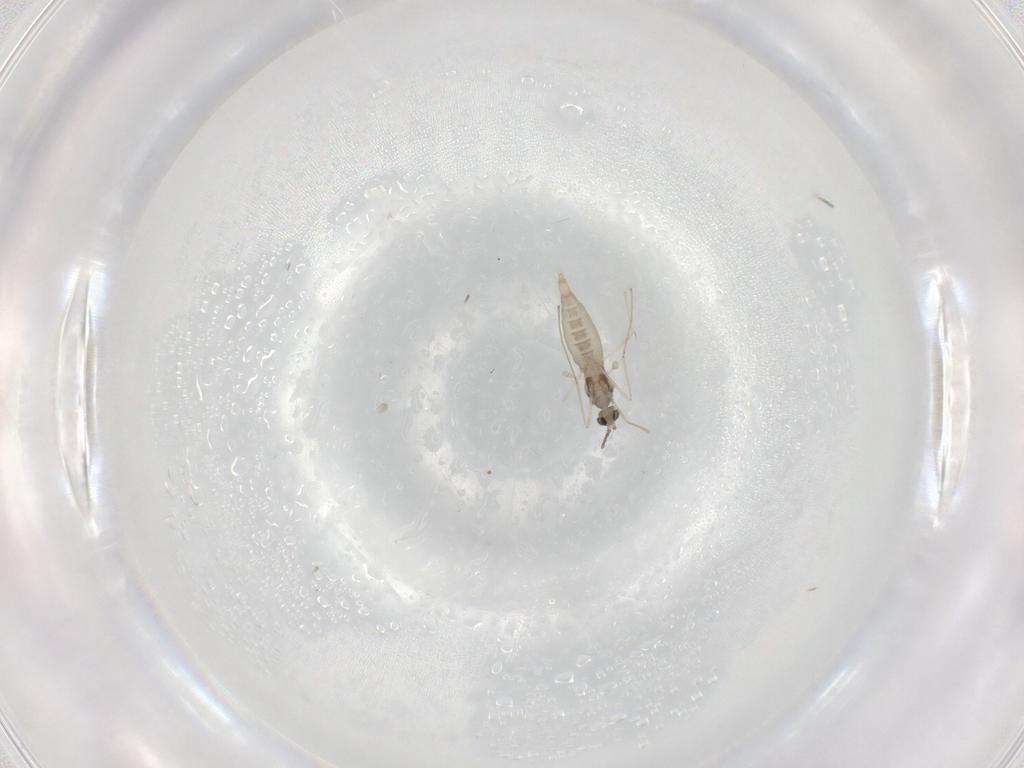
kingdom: Animalia
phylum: Arthropoda
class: Insecta
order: Diptera
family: Cecidomyiidae
